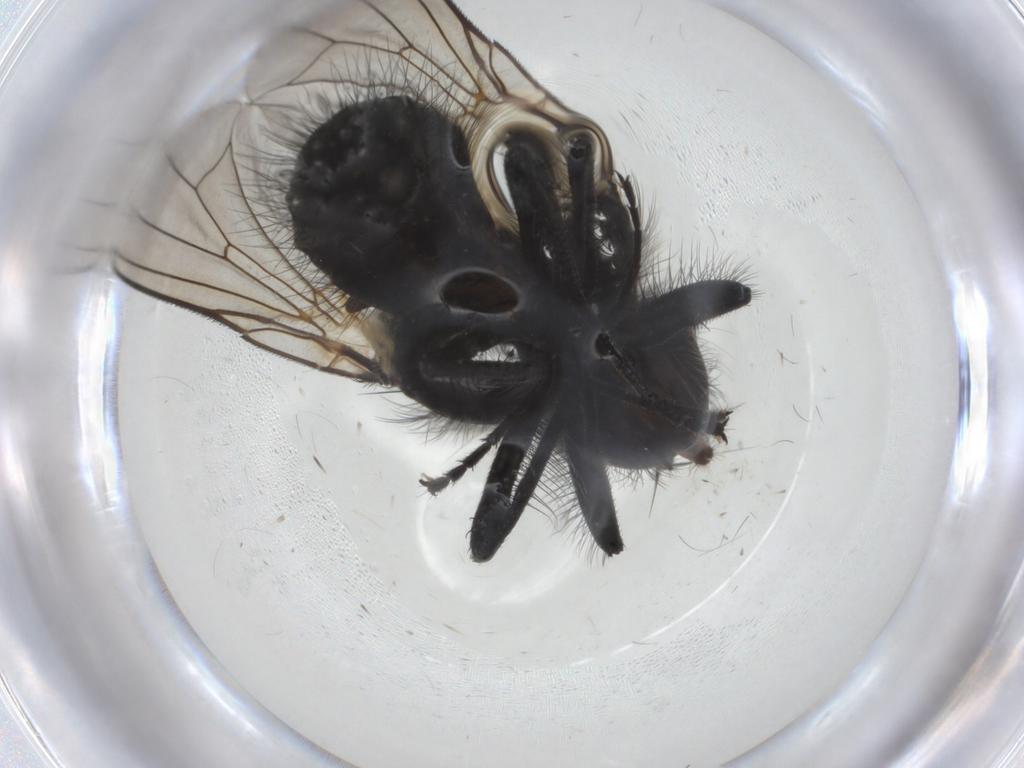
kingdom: Animalia
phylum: Arthropoda
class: Insecta
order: Diptera
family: Muscidae
